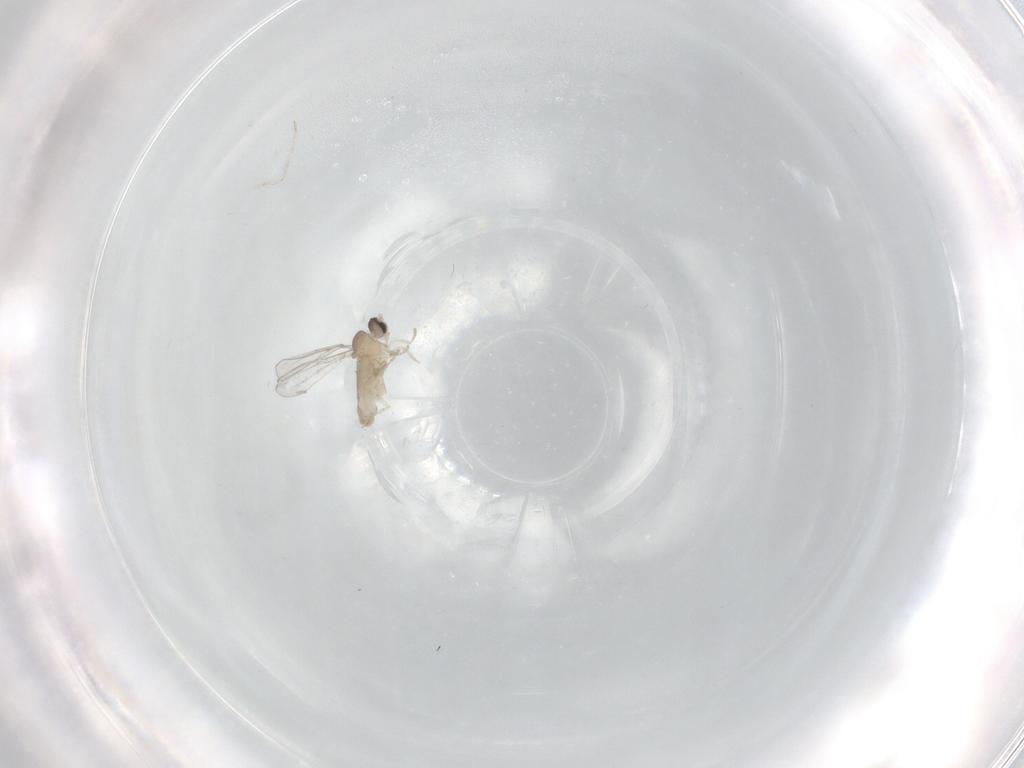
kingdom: Animalia
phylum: Arthropoda
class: Insecta
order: Diptera
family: Cecidomyiidae
